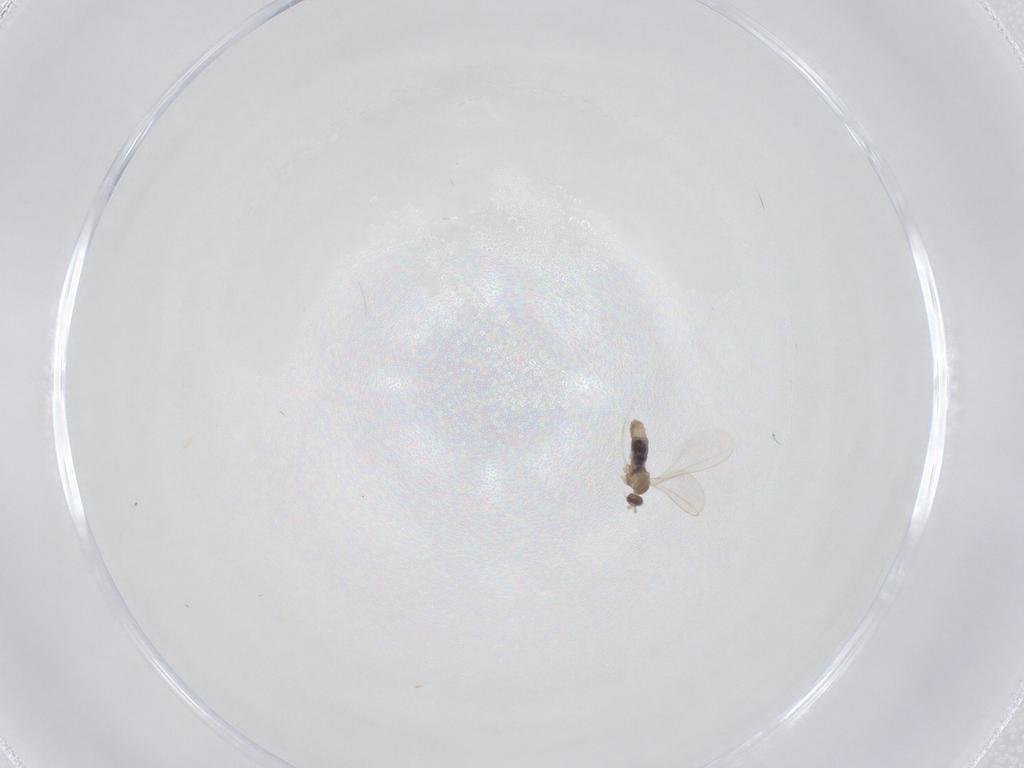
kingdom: Animalia
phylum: Arthropoda
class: Insecta
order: Diptera
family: Cecidomyiidae
